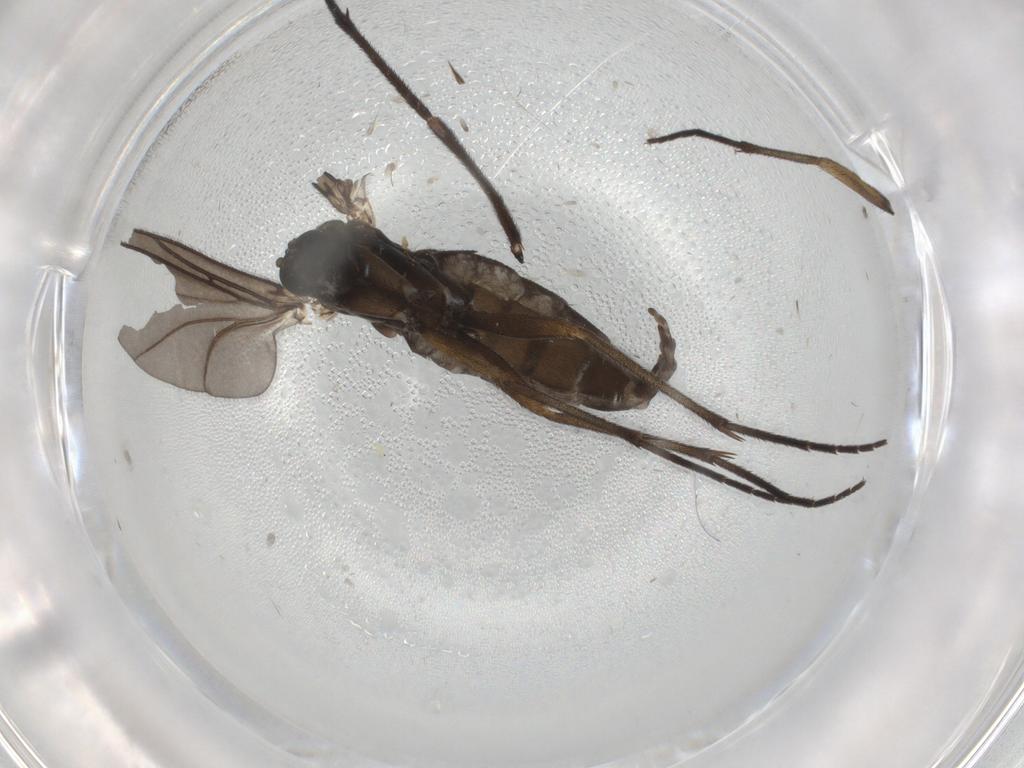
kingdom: Animalia
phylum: Arthropoda
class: Insecta
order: Diptera
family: Sciaridae
